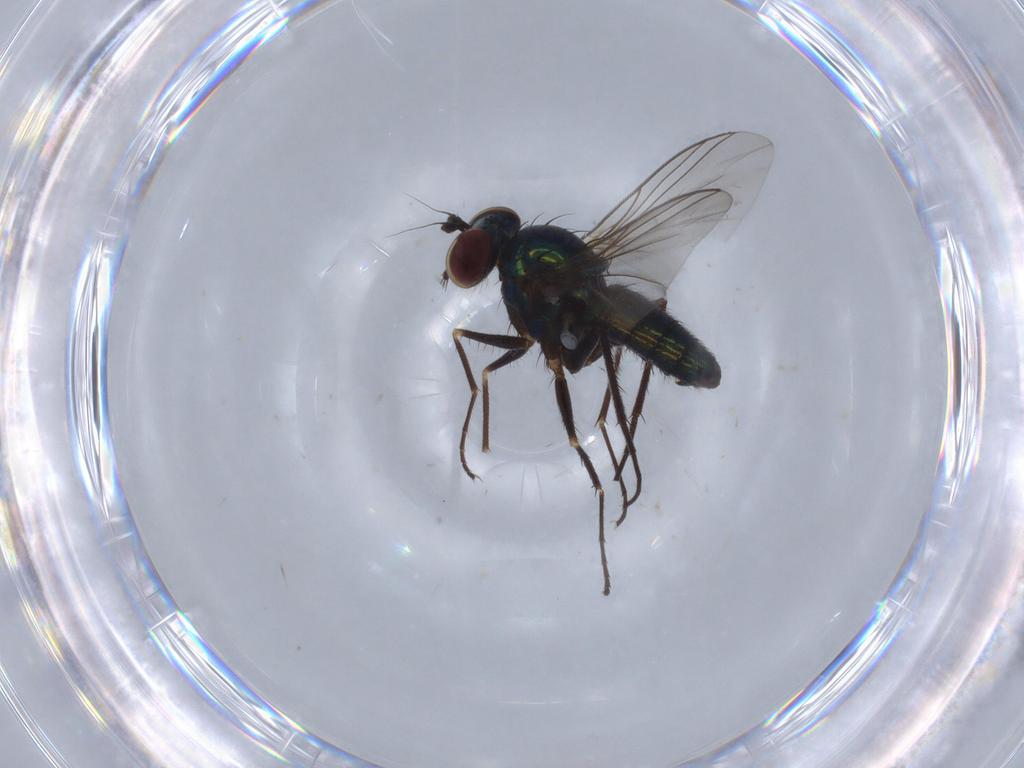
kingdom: Animalia
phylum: Arthropoda
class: Insecta
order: Diptera
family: Dolichopodidae
